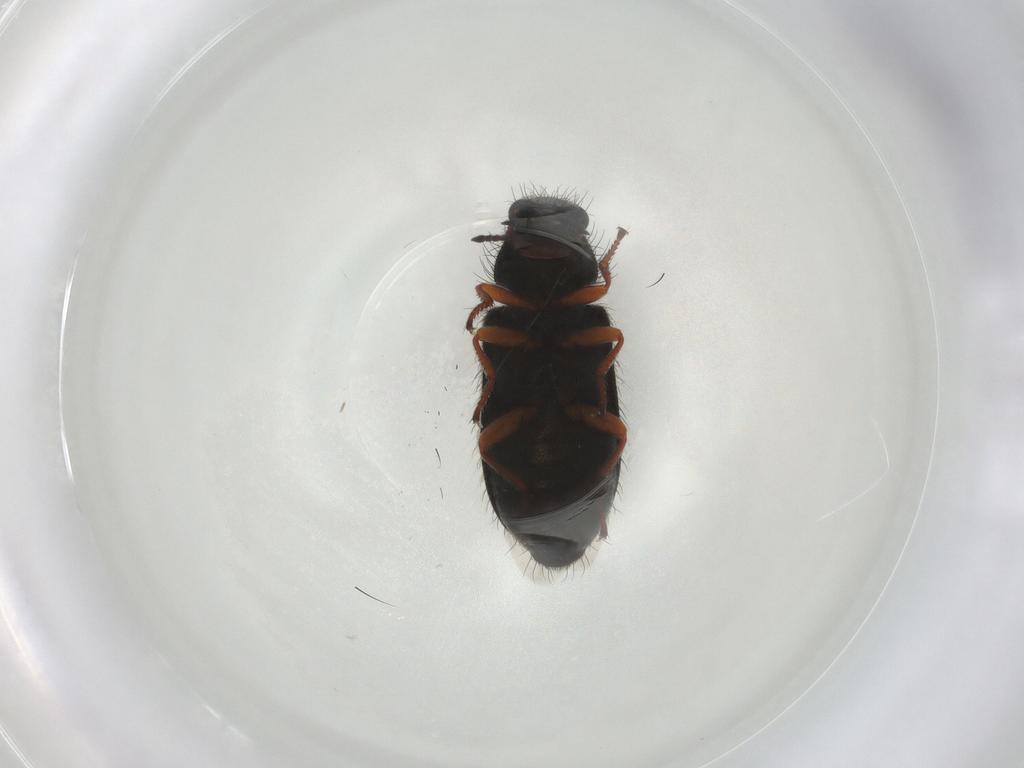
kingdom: Animalia
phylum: Arthropoda
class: Insecta
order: Coleoptera
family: Melyridae
